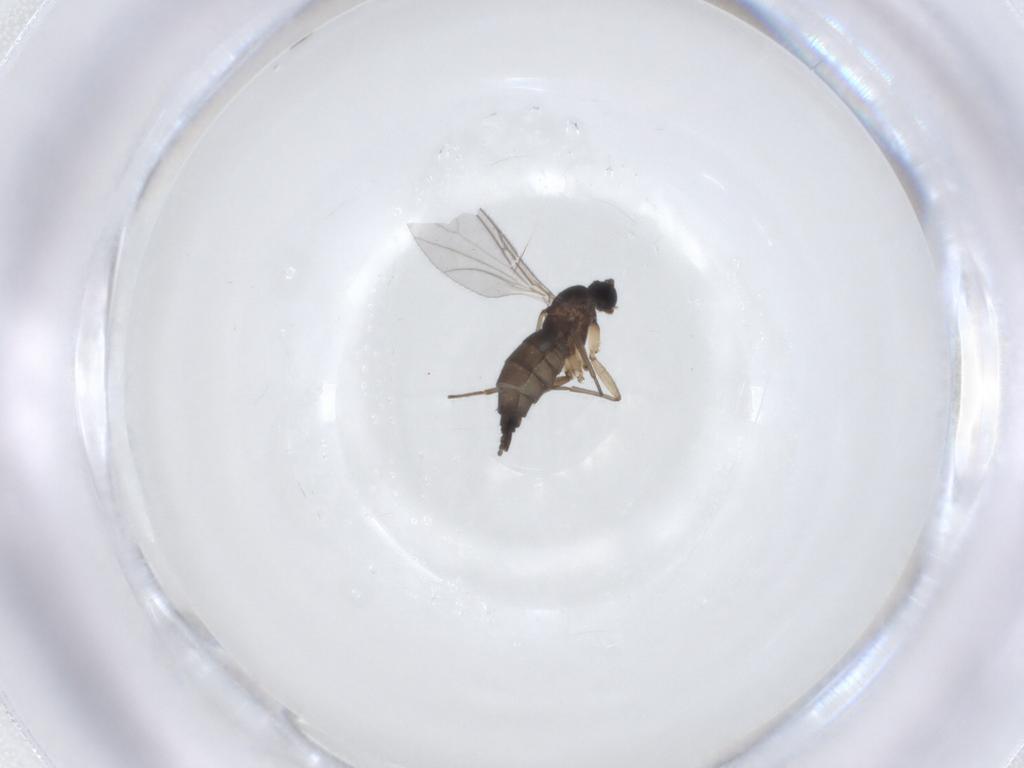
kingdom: Animalia
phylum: Arthropoda
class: Insecta
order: Diptera
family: Sciaridae
